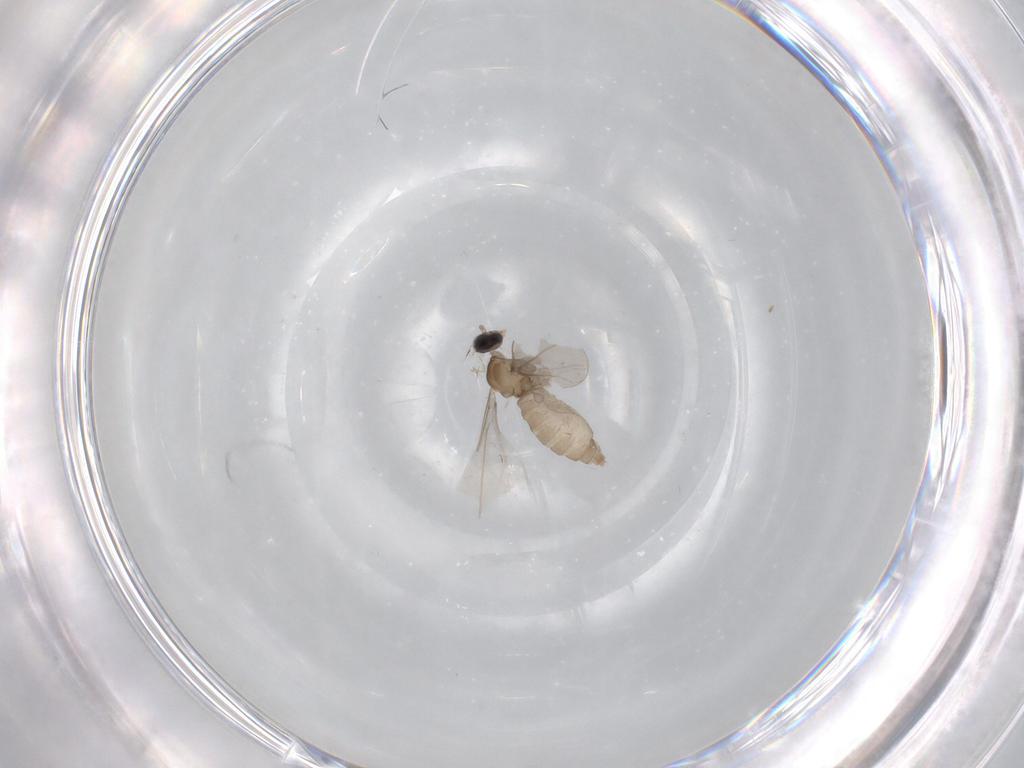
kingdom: Animalia
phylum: Arthropoda
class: Insecta
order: Diptera
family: Cecidomyiidae
